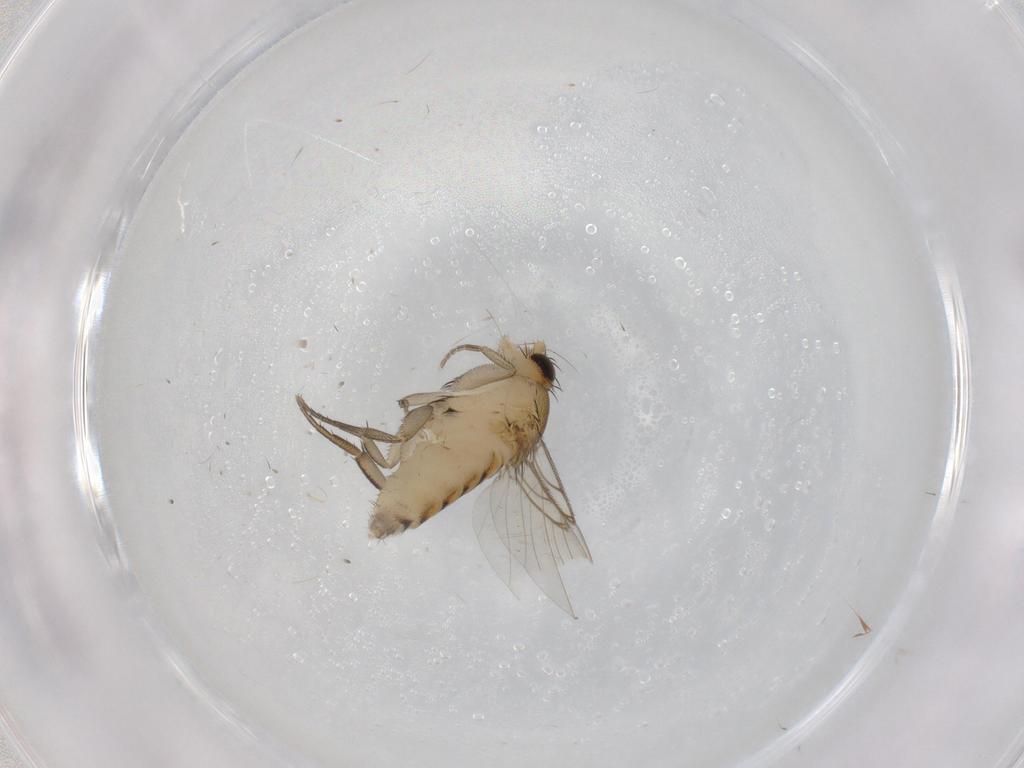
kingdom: Animalia
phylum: Arthropoda
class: Insecta
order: Diptera
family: Phoridae
